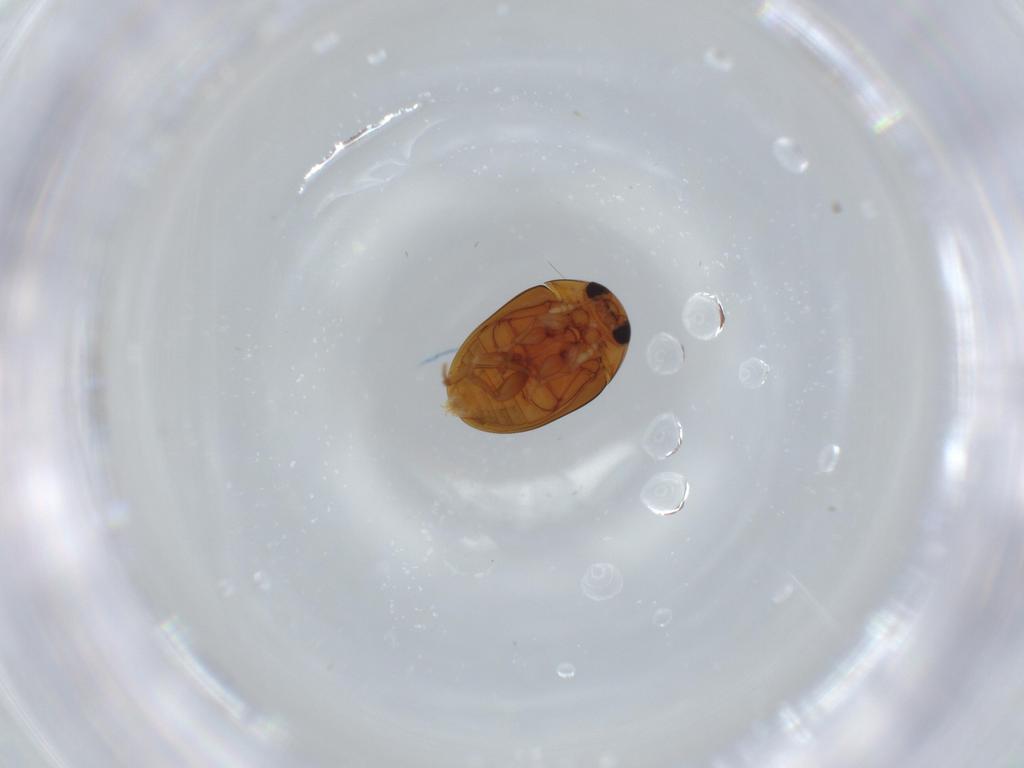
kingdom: Animalia
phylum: Arthropoda
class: Insecta
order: Coleoptera
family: Phalacridae
